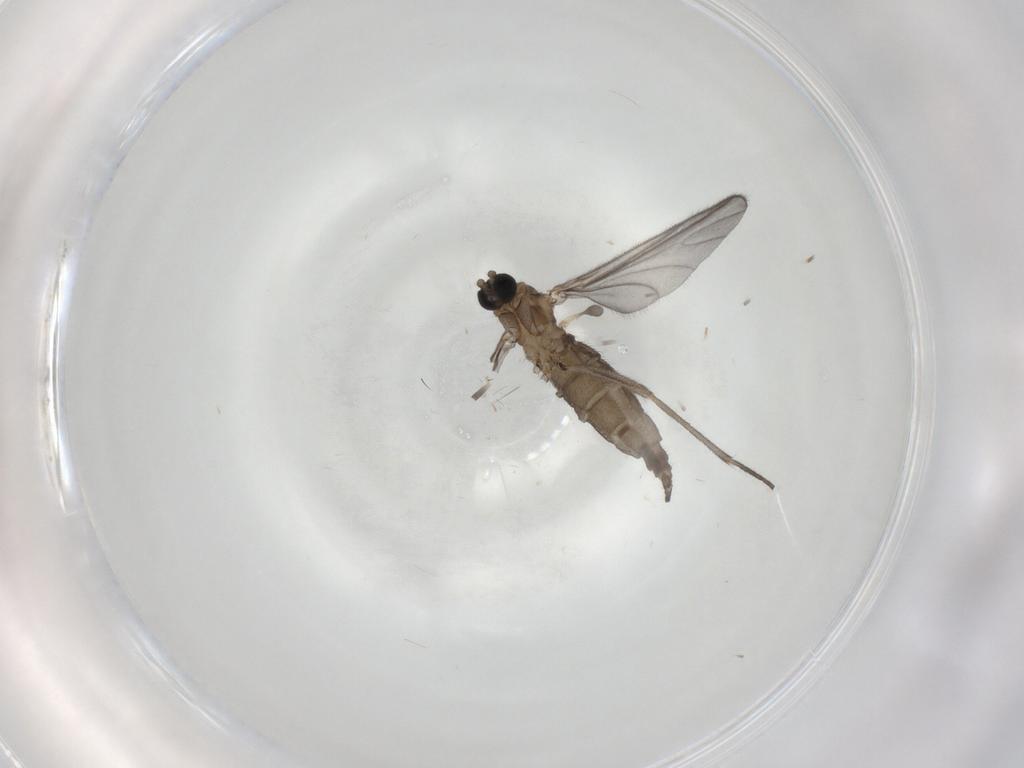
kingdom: Animalia
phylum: Arthropoda
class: Insecta
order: Diptera
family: Sciaridae
